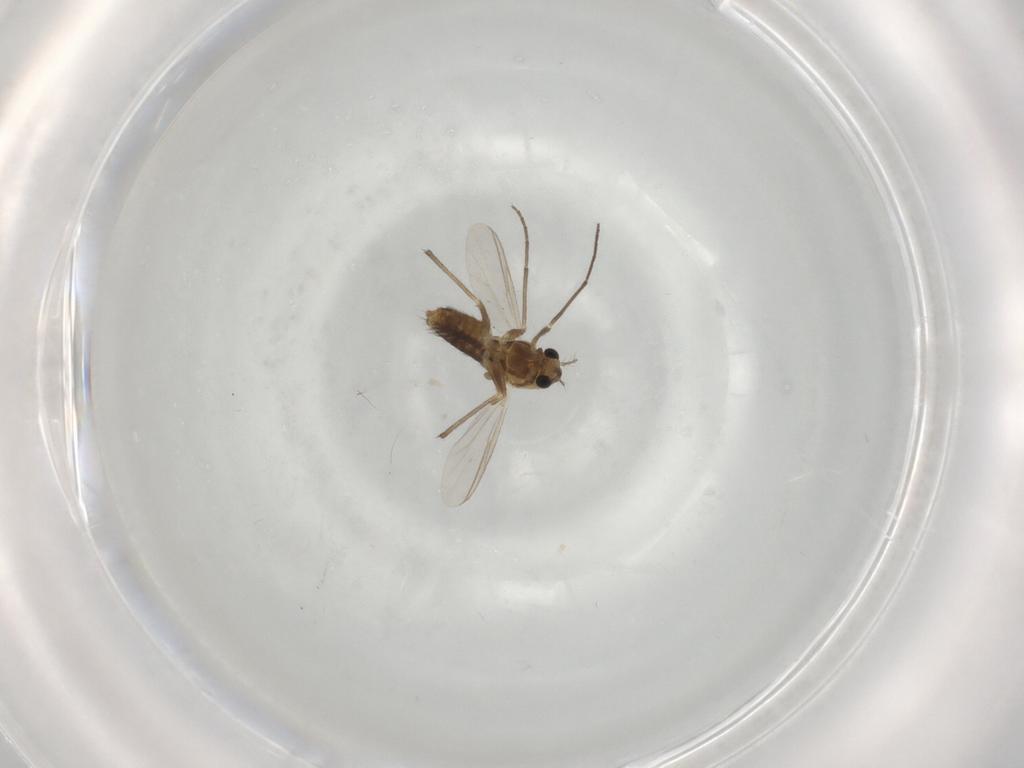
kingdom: Animalia
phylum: Arthropoda
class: Insecta
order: Diptera
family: Chironomidae
